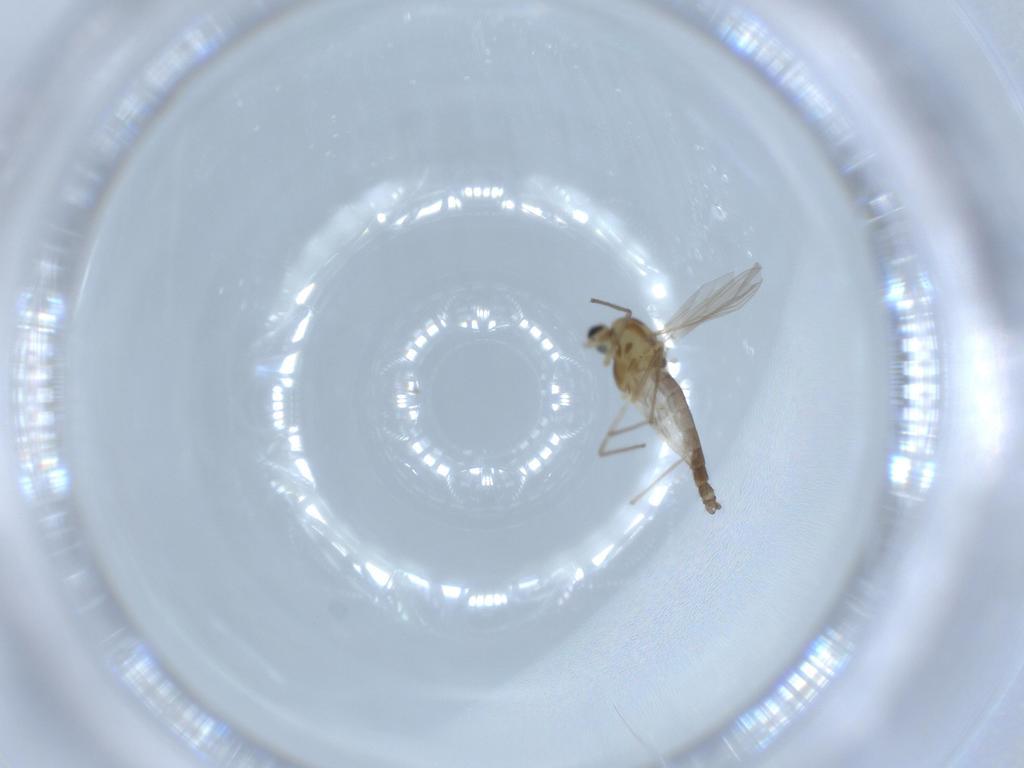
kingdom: Animalia
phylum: Arthropoda
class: Insecta
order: Diptera
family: Chironomidae
